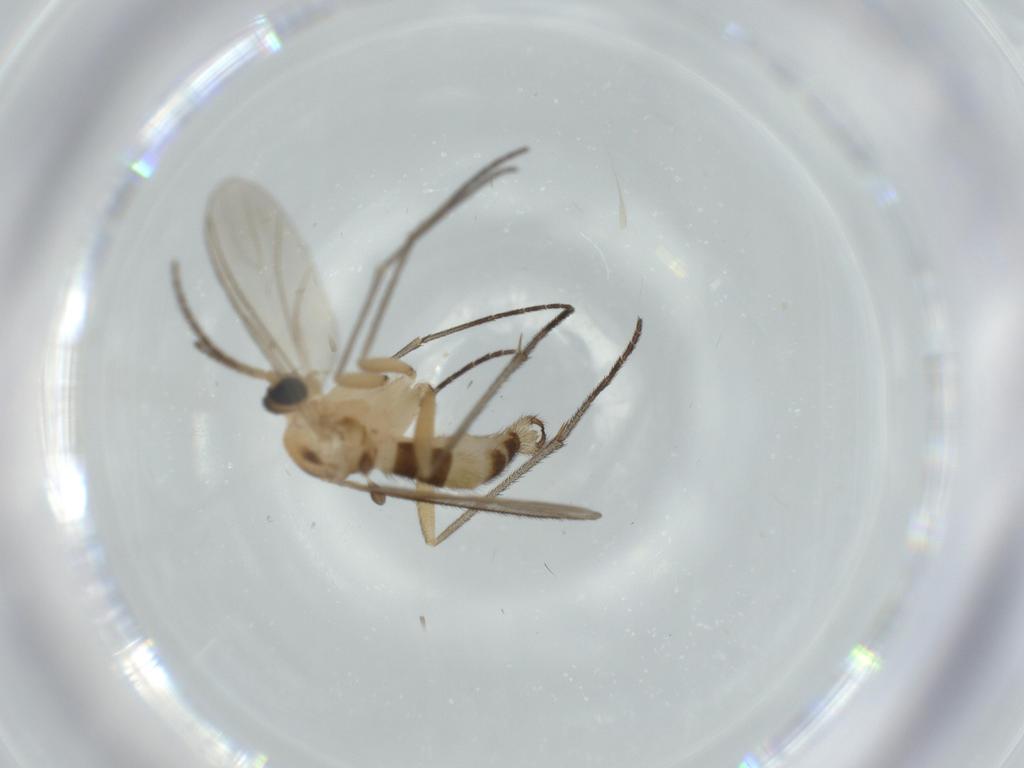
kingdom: Animalia
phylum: Arthropoda
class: Insecta
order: Diptera
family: Sciaridae
